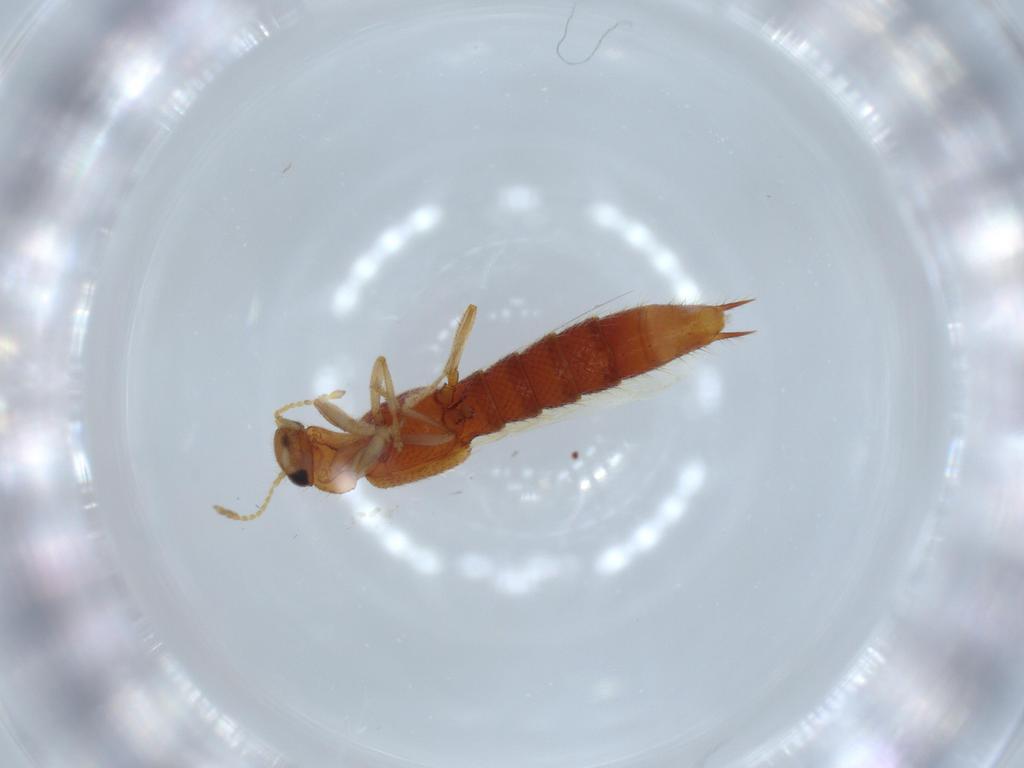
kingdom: Animalia
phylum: Arthropoda
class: Insecta
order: Coleoptera
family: Staphylinidae
